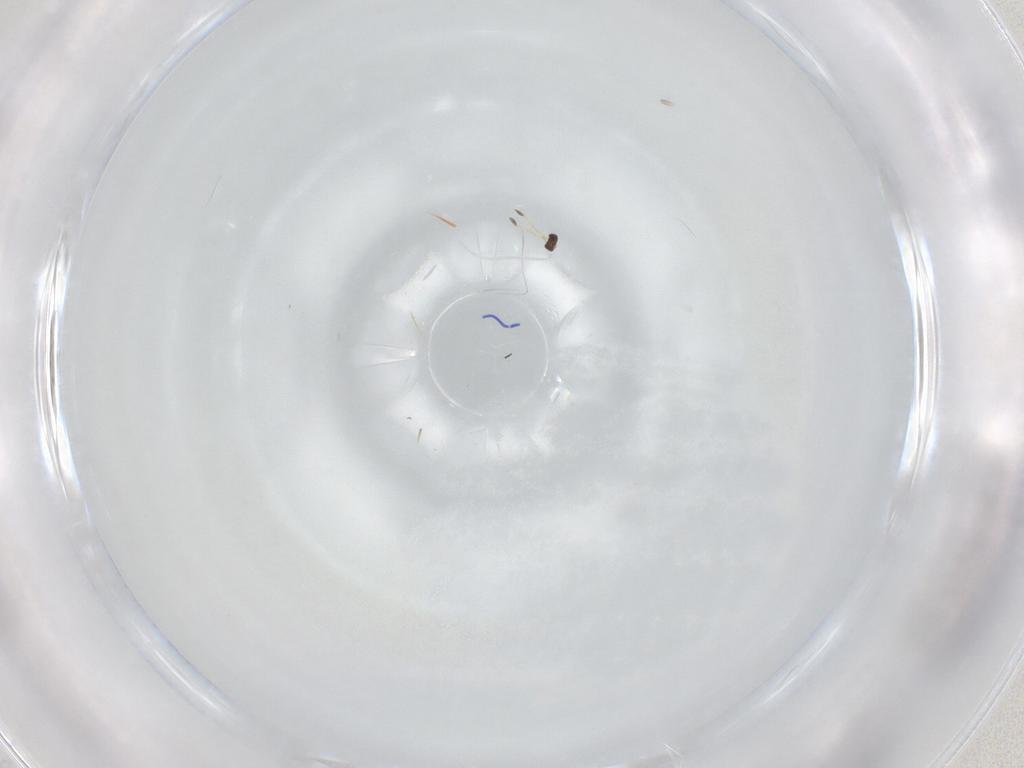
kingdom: Animalia
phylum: Arthropoda
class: Insecta
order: Hymenoptera
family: Mymaridae
